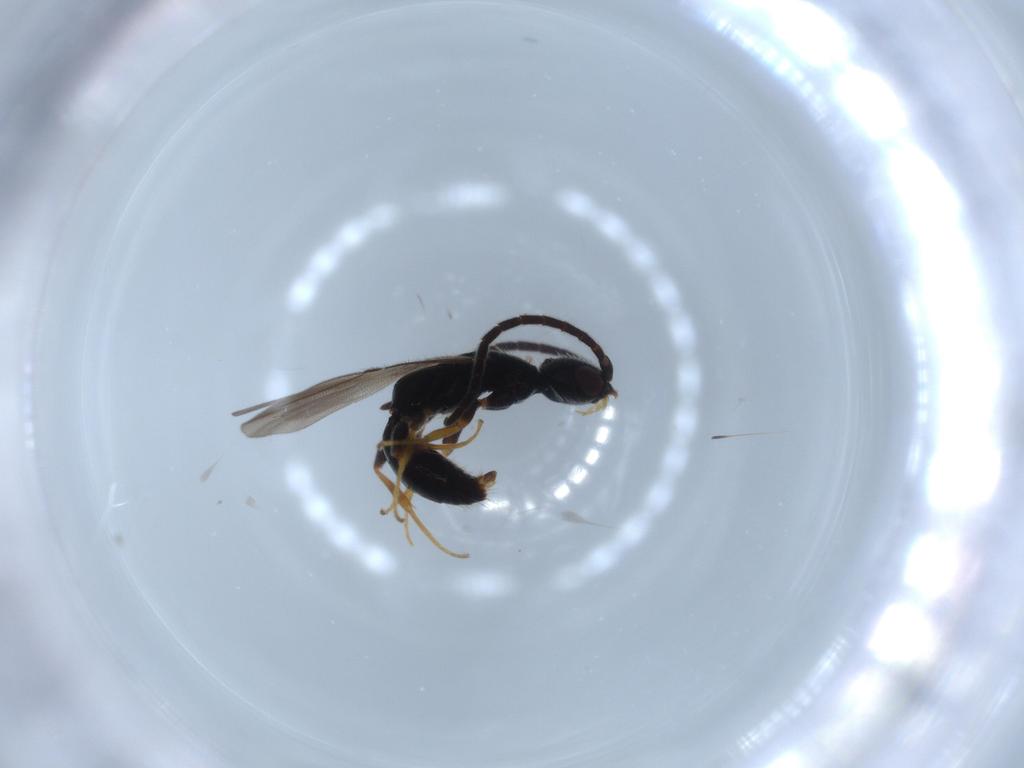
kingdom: Animalia
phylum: Arthropoda
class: Insecta
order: Hymenoptera
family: Bethylidae
